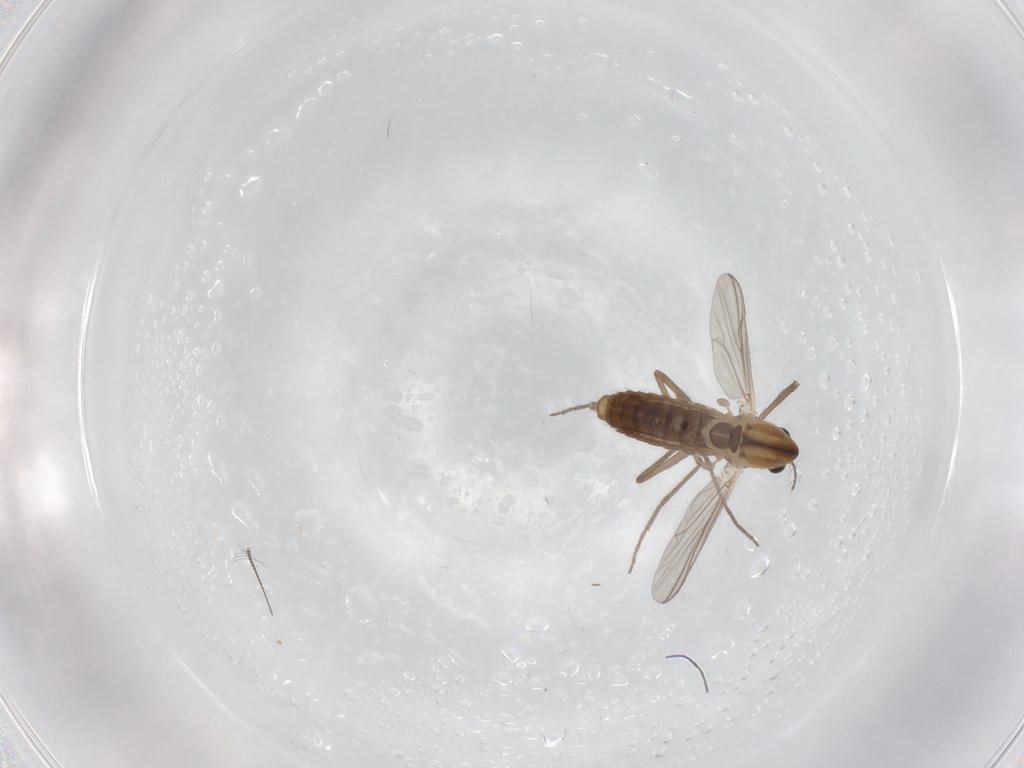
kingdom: Animalia
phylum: Arthropoda
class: Insecta
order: Diptera
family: Chironomidae
